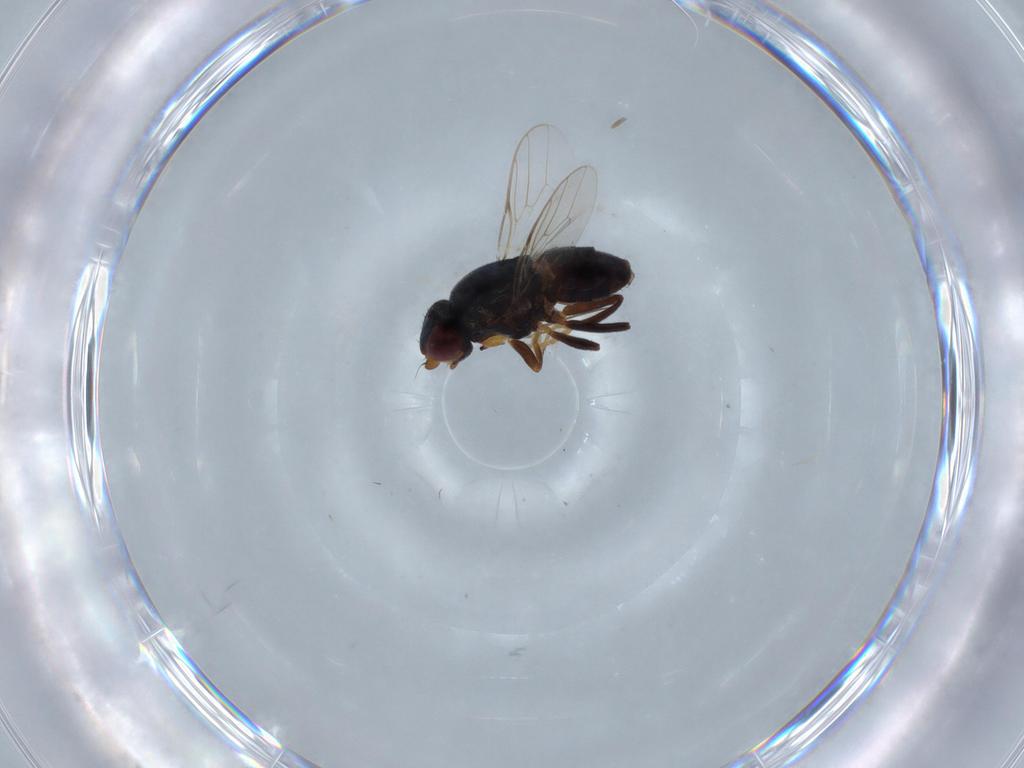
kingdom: Animalia
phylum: Arthropoda
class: Insecta
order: Diptera
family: Chloropidae
